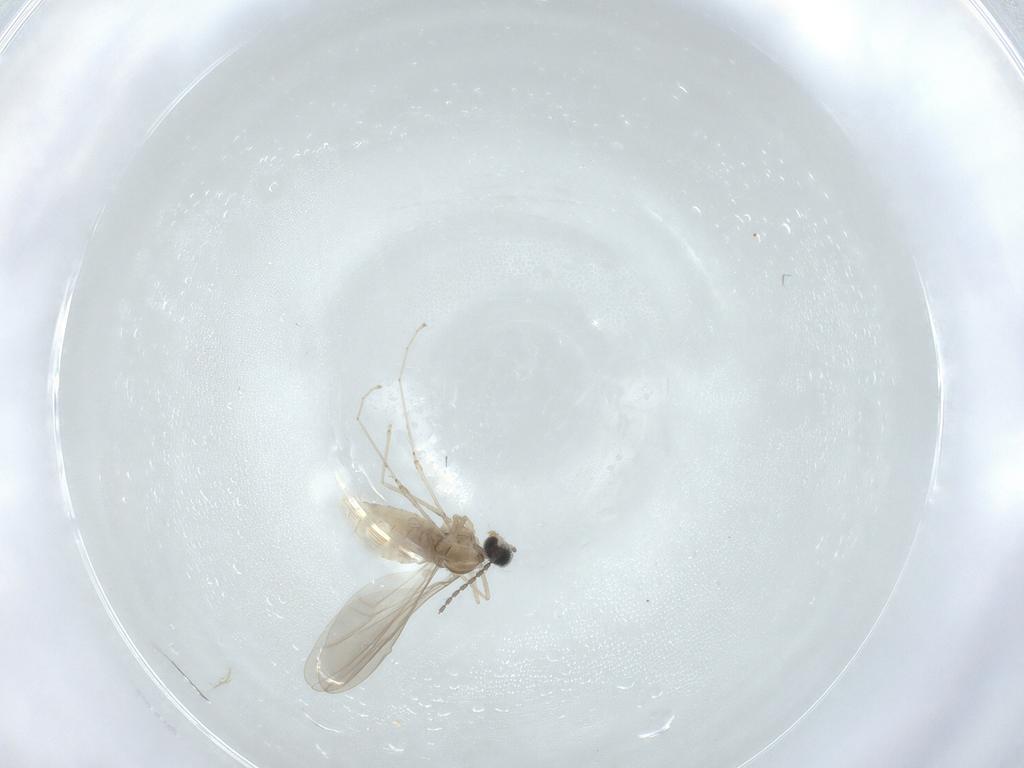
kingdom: Animalia
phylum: Arthropoda
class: Insecta
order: Diptera
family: Cecidomyiidae
